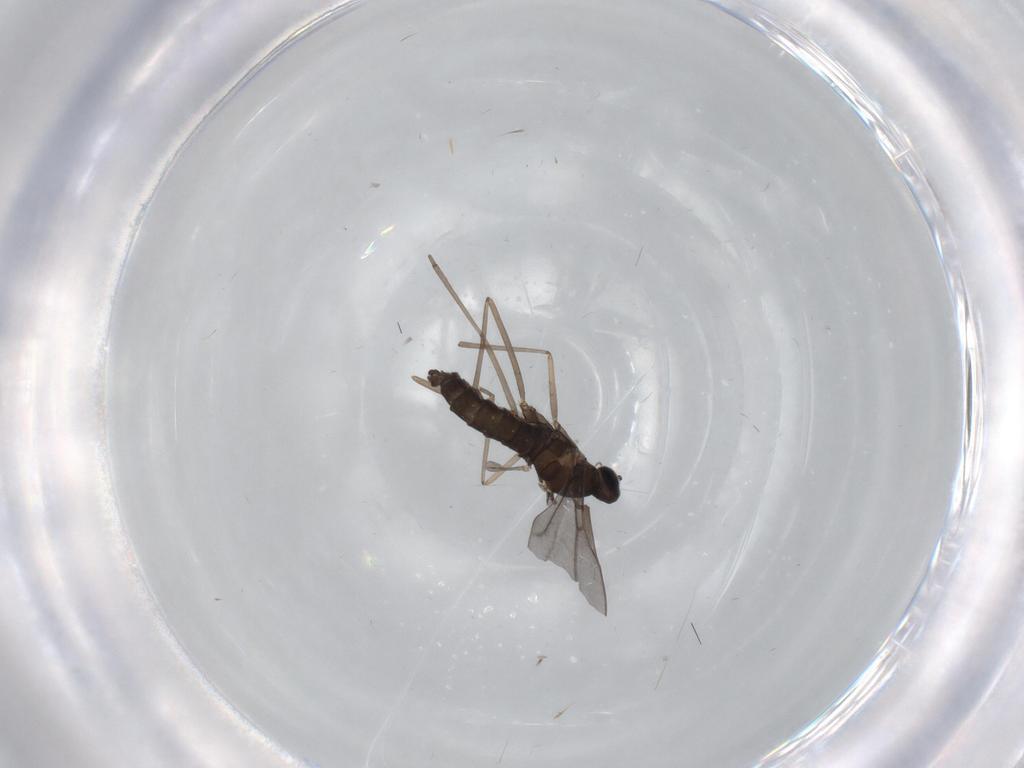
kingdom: Animalia
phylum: Arthropoda
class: Insecta
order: Diptera
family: Cecidomyiidae
